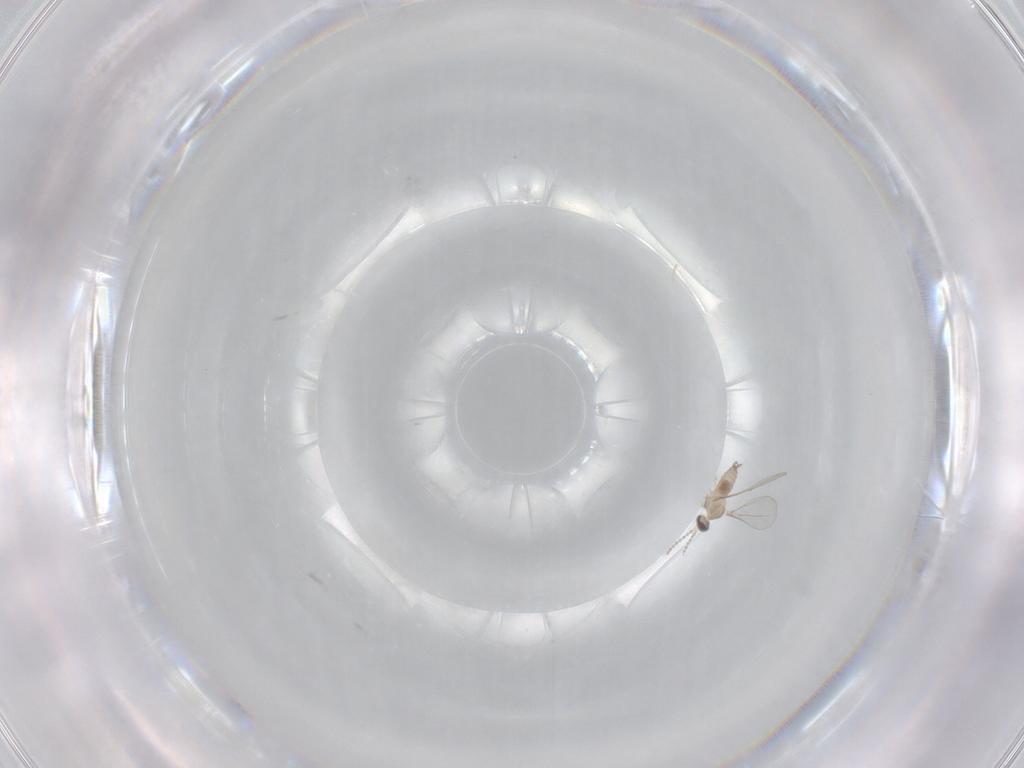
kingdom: Animalia
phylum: Arthropoda
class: Insecta
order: Diptera
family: Cecidomyiidae
